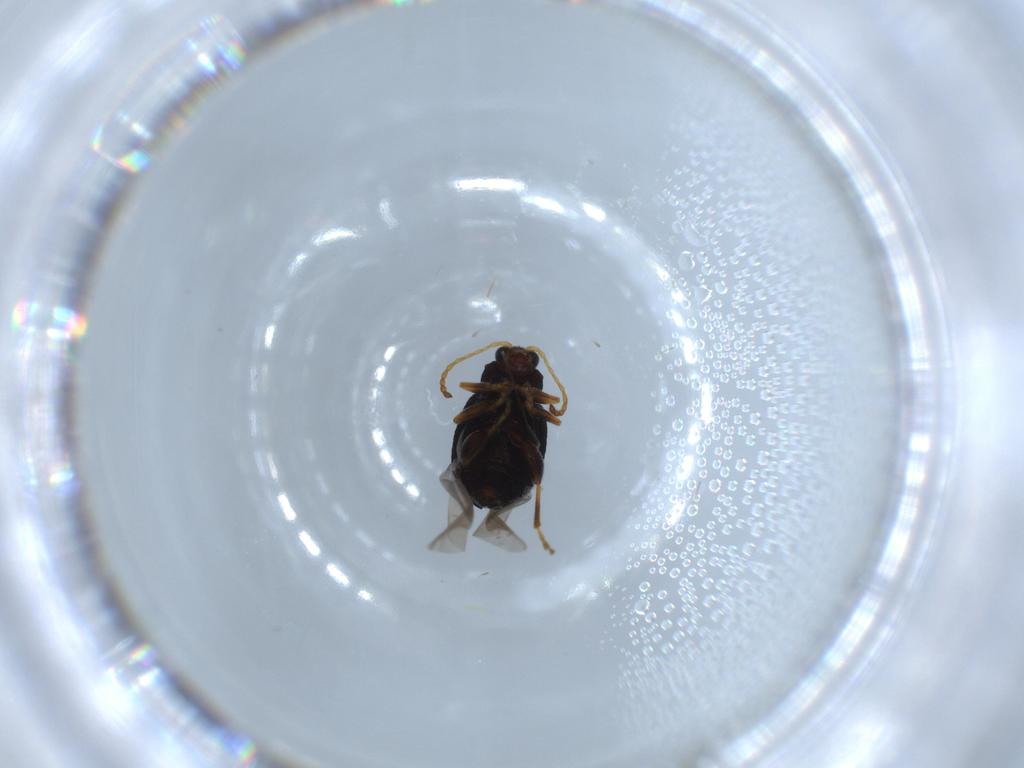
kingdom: Animalia
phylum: Arthropoda
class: Insecta
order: Coleoptera
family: Chrysomelidae
